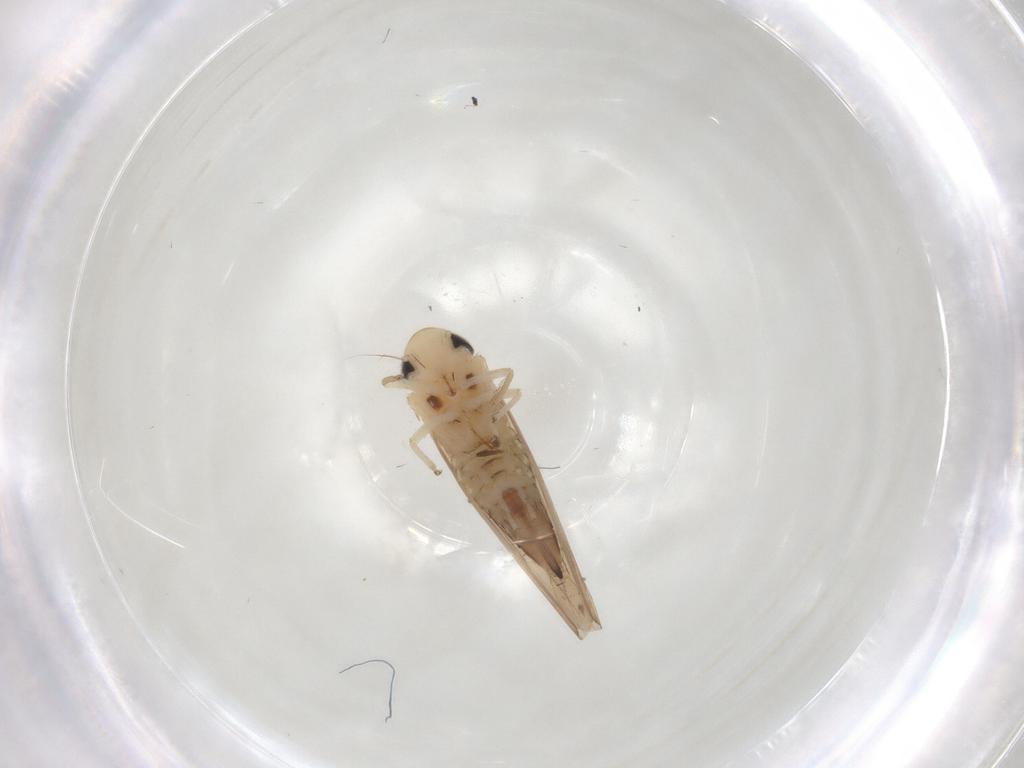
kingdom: Animalia
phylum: Arthropoda
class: Insecta
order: Hemiptera
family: Cicadellidae
